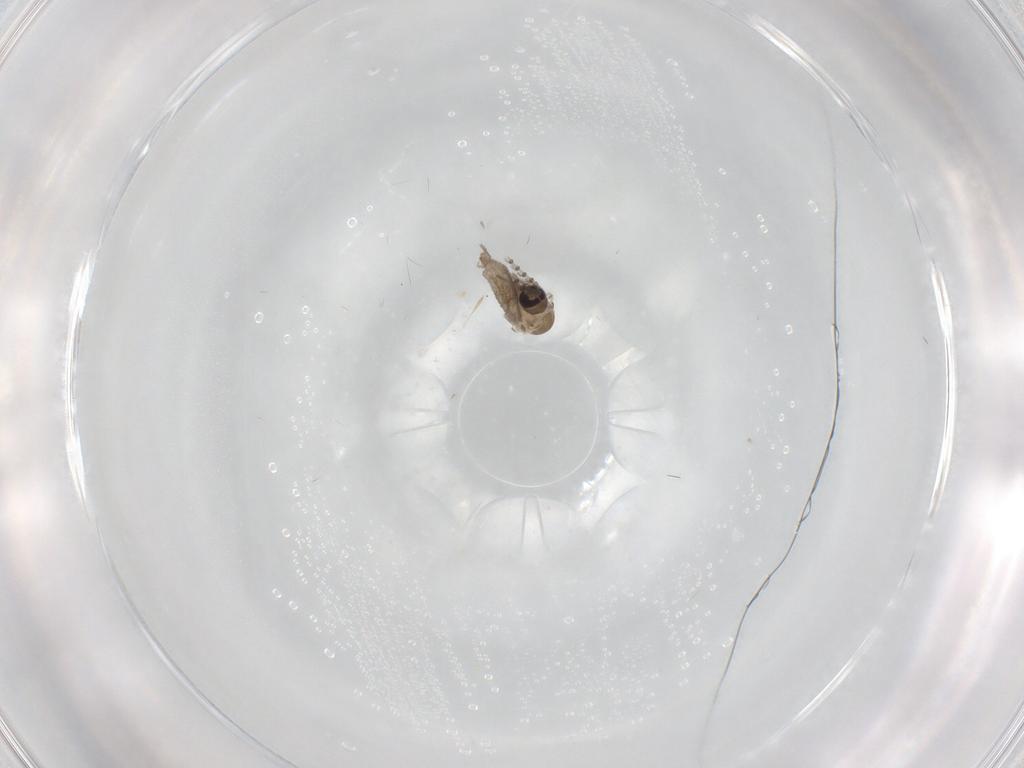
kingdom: Animalia
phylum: Arthropoda
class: Insecta
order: Diptera
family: Psychodidae
